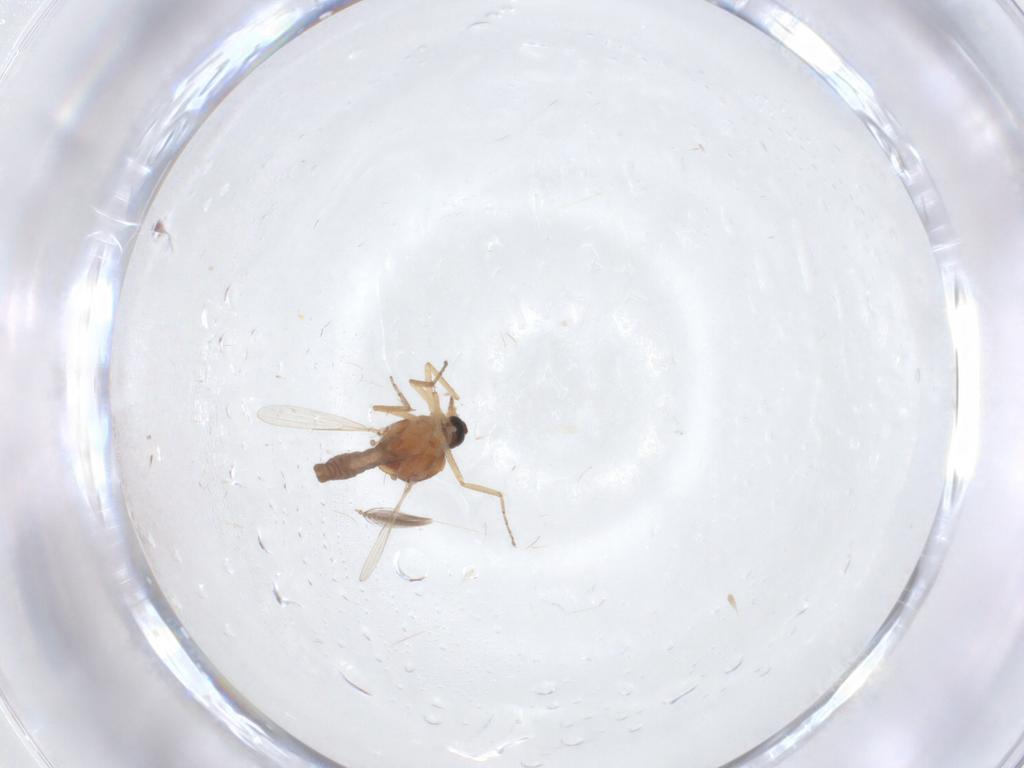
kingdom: Animalia
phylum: Arthropoda
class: Insecta
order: Diptera
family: Ceratopogonidae
